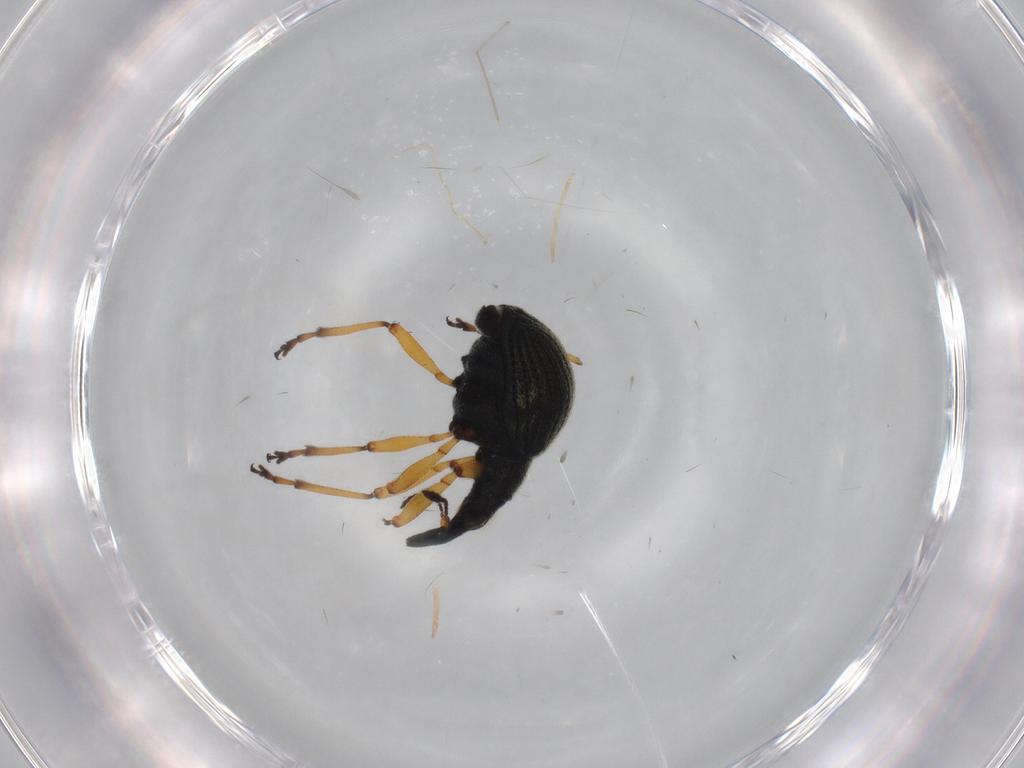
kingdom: Animalia
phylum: Arthropoda
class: Insecta
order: Coleoptera
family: Brentidae
